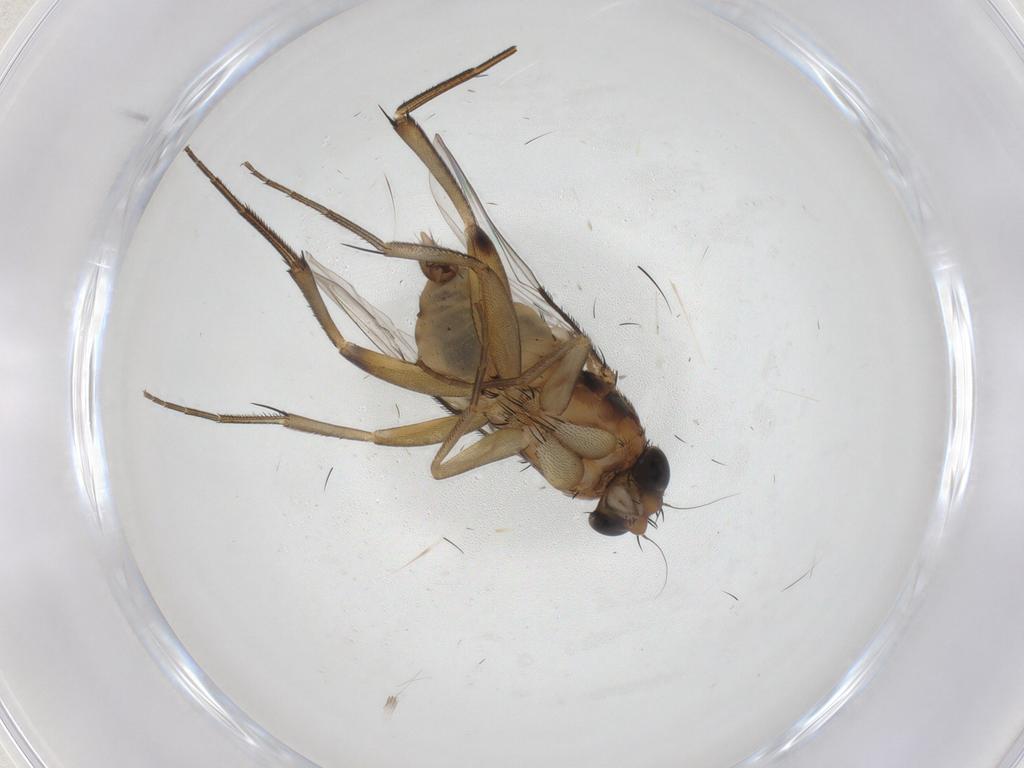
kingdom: Animalia
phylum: Arthropoda
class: Insecta
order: Diptera
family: Phoridae
